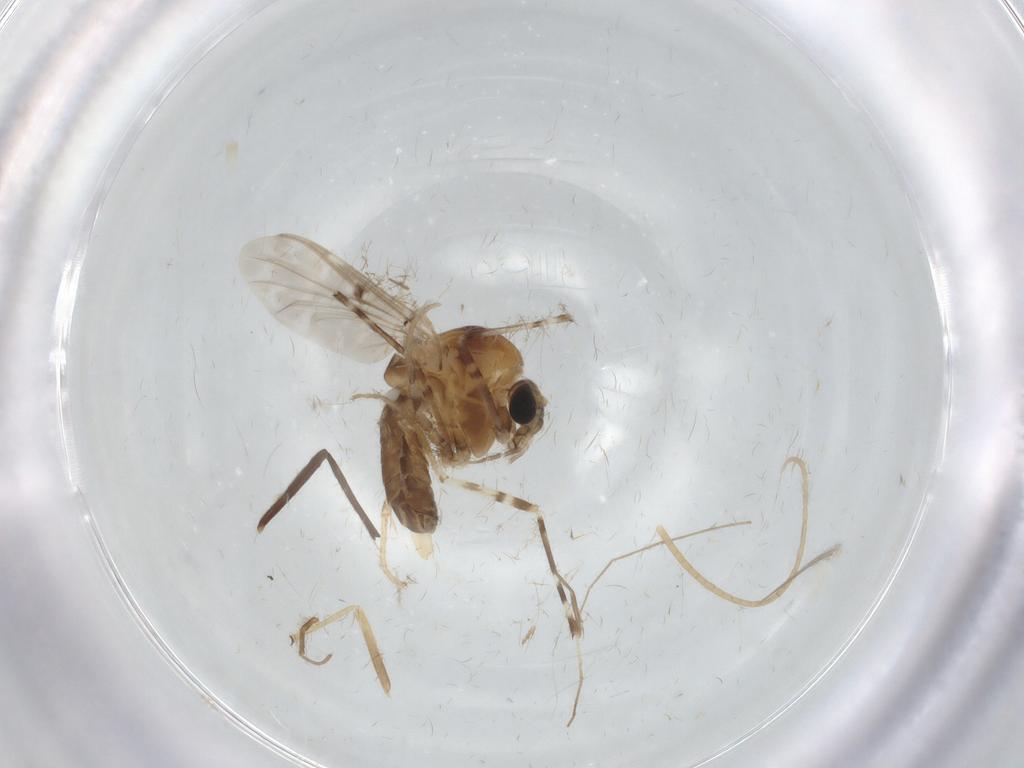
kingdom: Animalia
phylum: Arthropoda
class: Insecta
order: Diptera
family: Chironomidae
